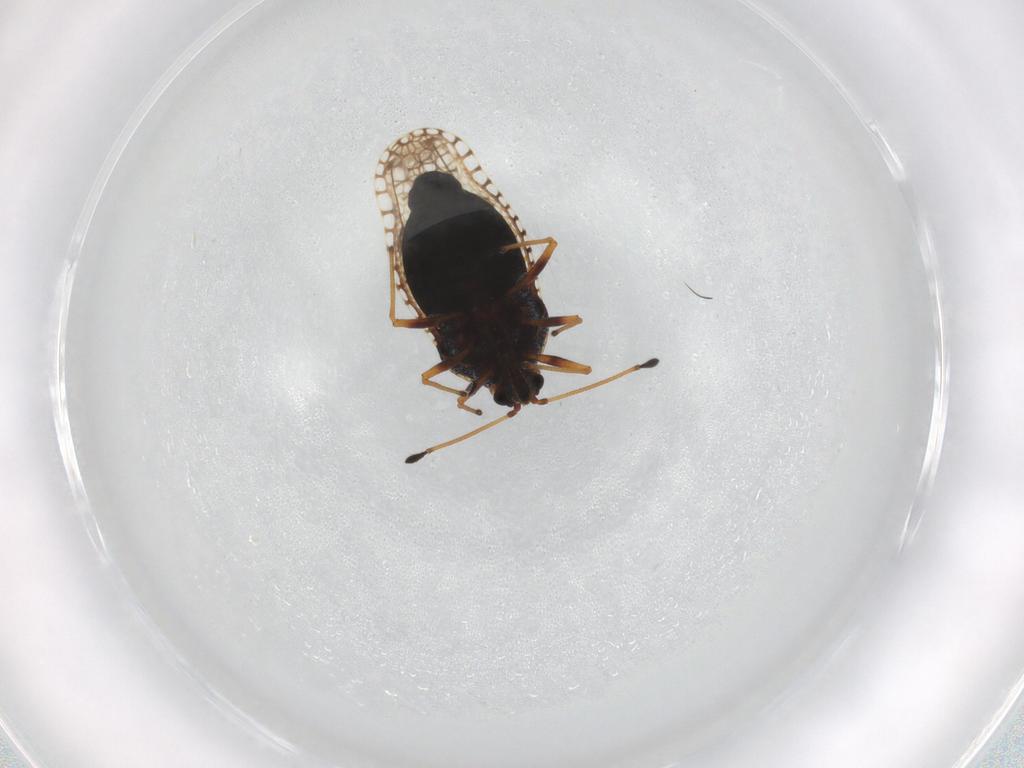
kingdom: Animalia
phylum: Arthropoda
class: Insecta
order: Hemiptera
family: Tingidae
